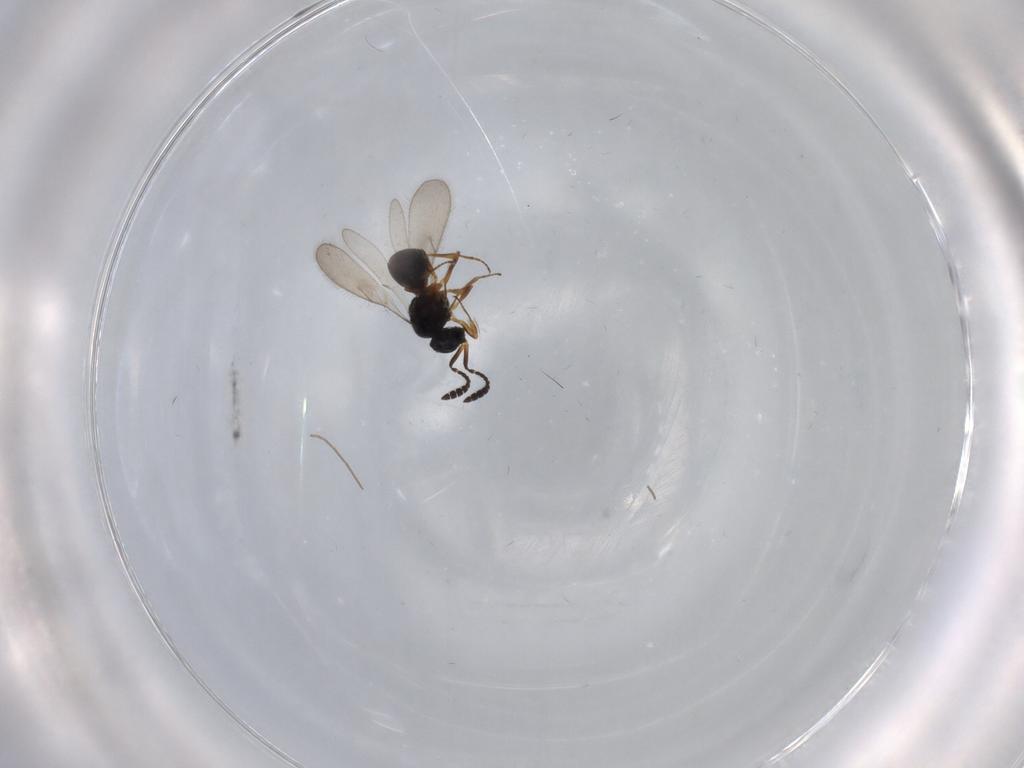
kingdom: Animalia
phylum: Arthropoda
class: Insecta
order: Hymenoptera
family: Scelionidae
